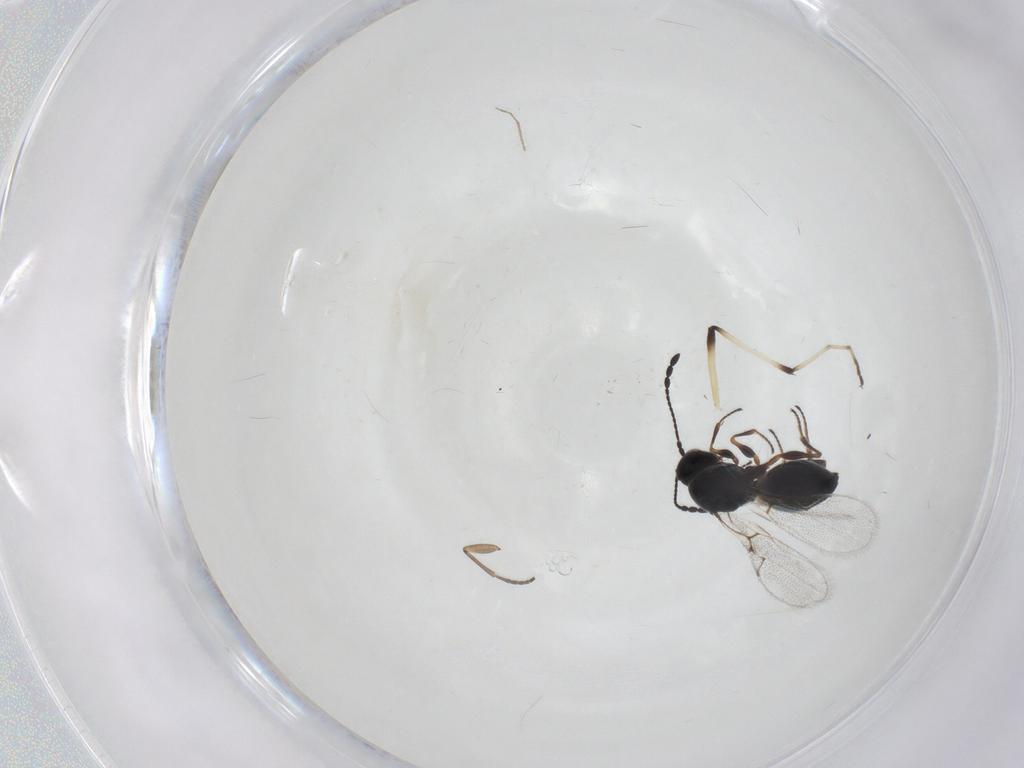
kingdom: Animalia
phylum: Arthropoda
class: Insecta
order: Hymenoptera
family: Figitidae
